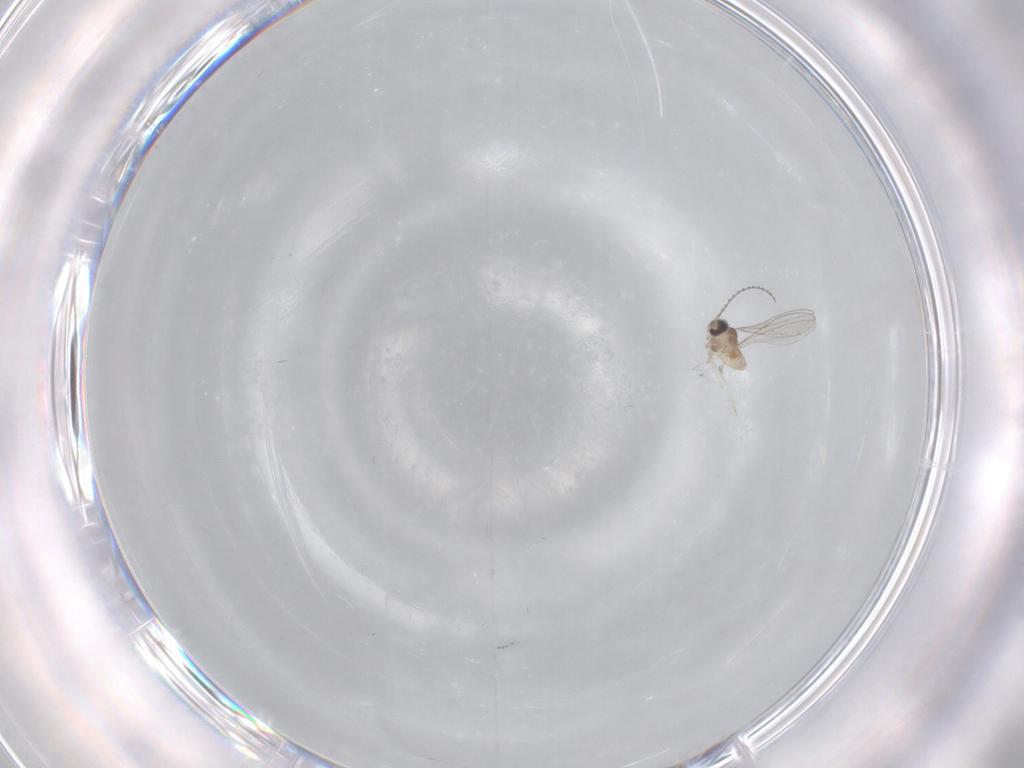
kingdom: Animalia
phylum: Arthropoda
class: Insecta
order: Diptera
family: Cecidomyiidae
